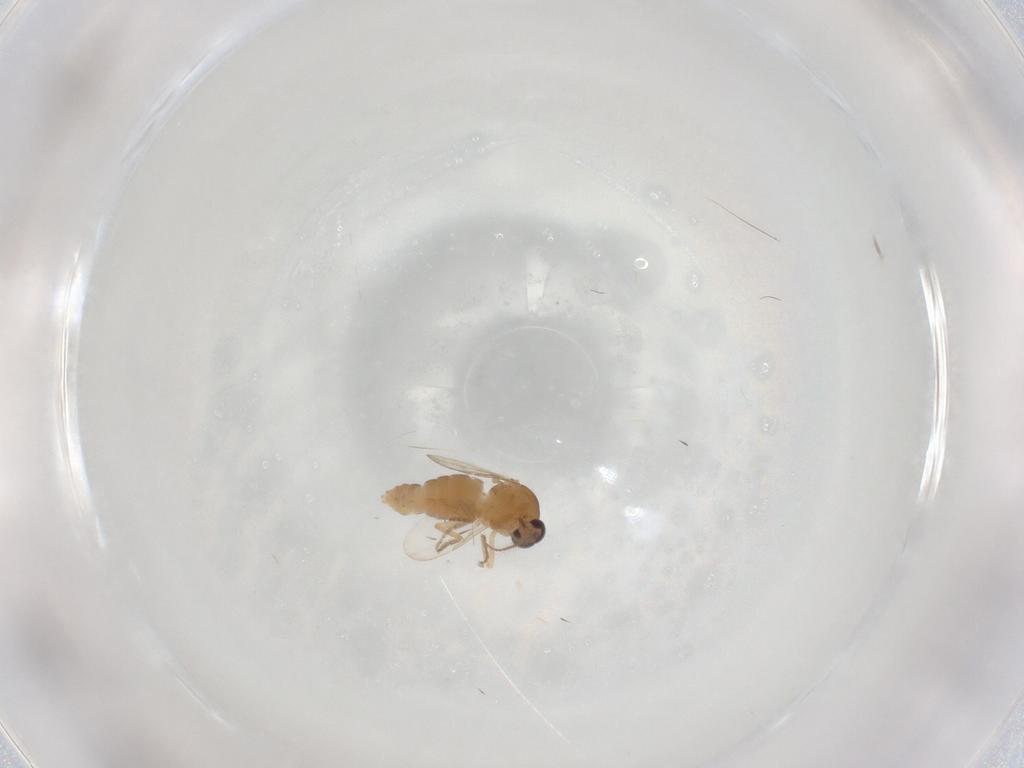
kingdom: Animalia
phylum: Arthropoda
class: Insecta
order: Diptera
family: Ceratopogonidae
